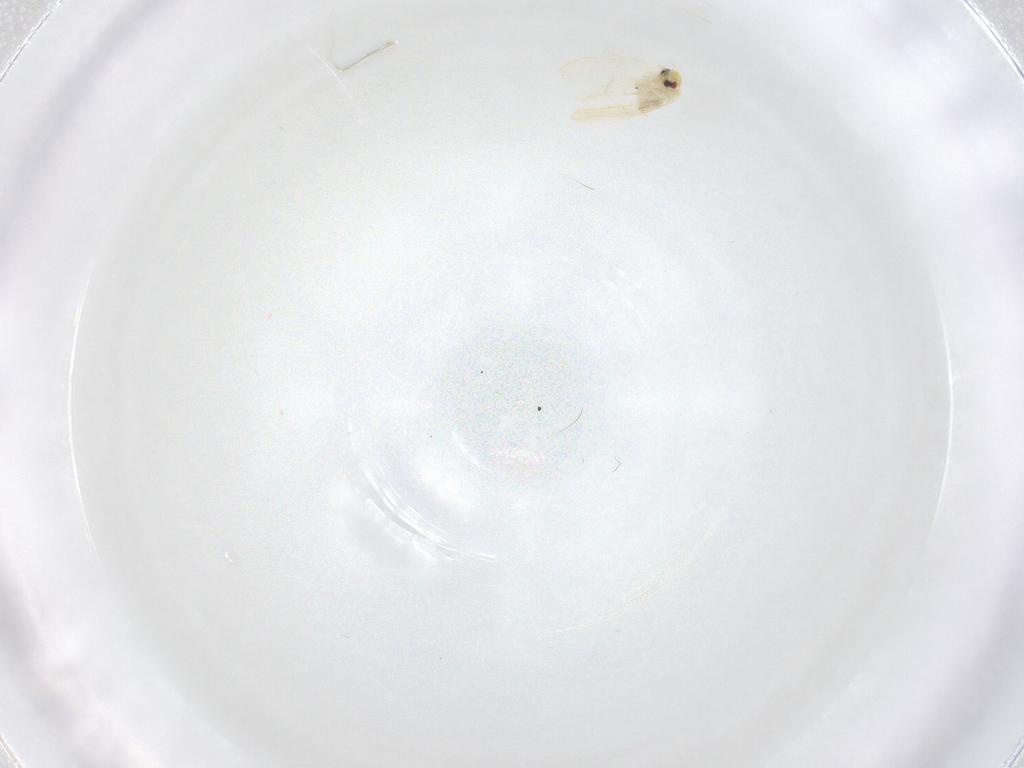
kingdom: Animalia
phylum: Arthropoda
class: Insecta
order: Hemiptera
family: Aleyrodidae
